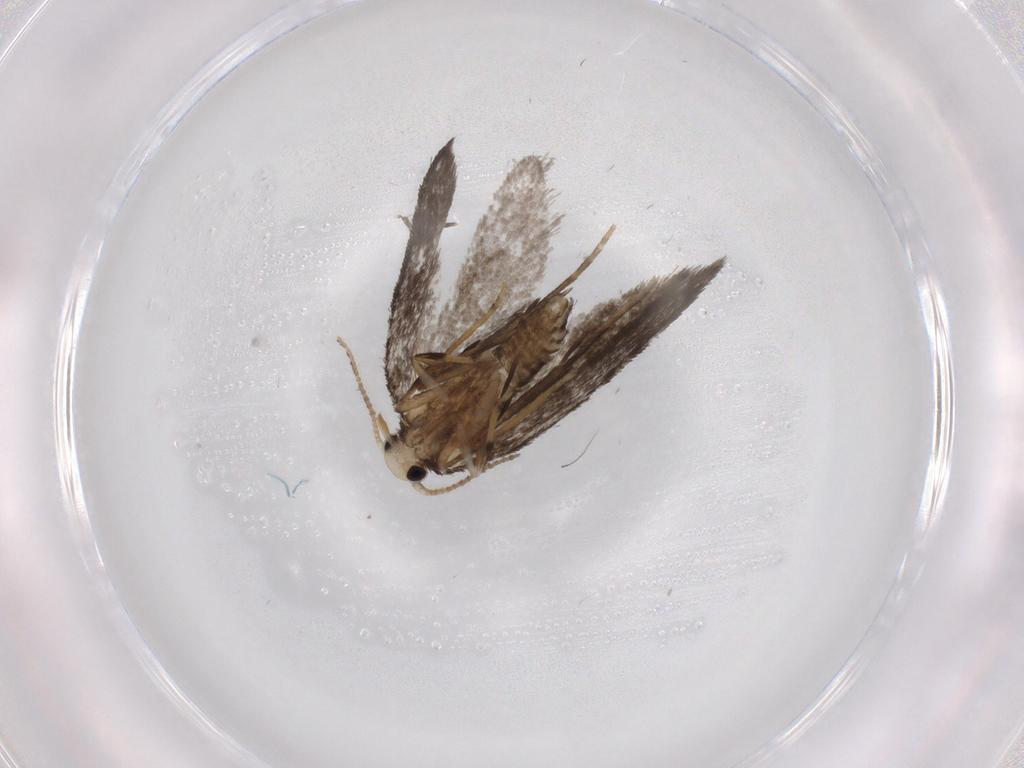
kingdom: Animalia
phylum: Arthropoda
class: Insecta
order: Lepidoptera
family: Psychidae
